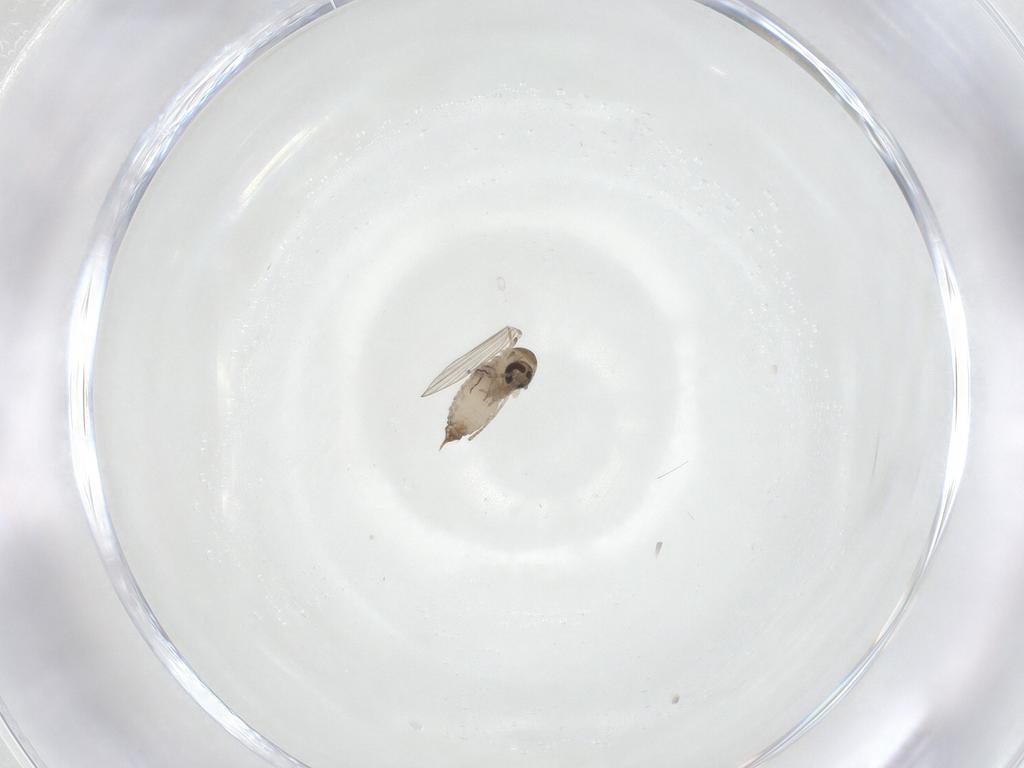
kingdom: Animalia
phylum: Arthropoda
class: Insecta
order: Diptera
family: Psychodidae
